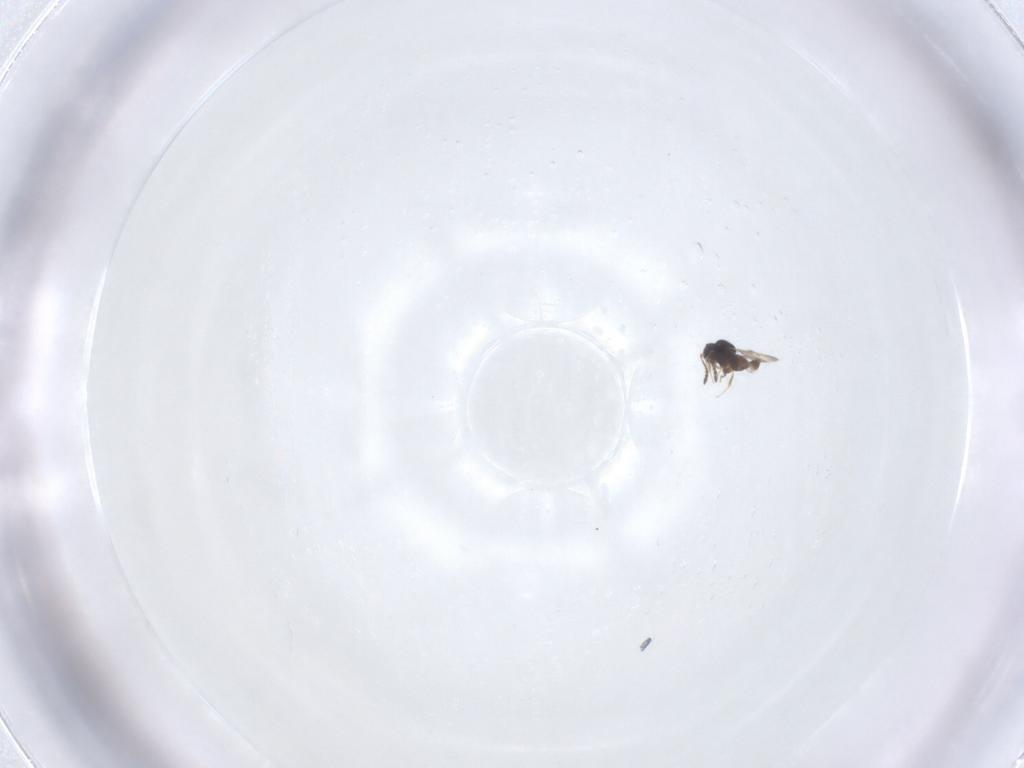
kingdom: Animalia
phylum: Arthropoda
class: Insecta
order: Hymenoptera
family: Ceraphronidae
